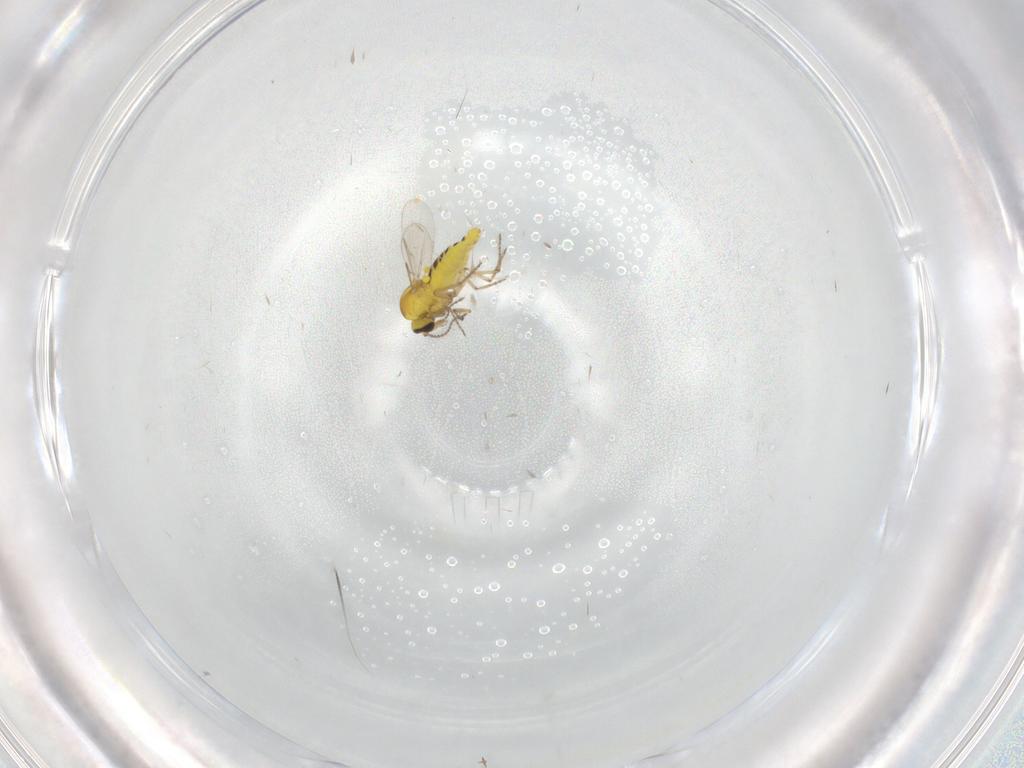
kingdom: Animalia
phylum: Arthropoda
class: Insecta
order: Diptera
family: Ceratopogonidae
